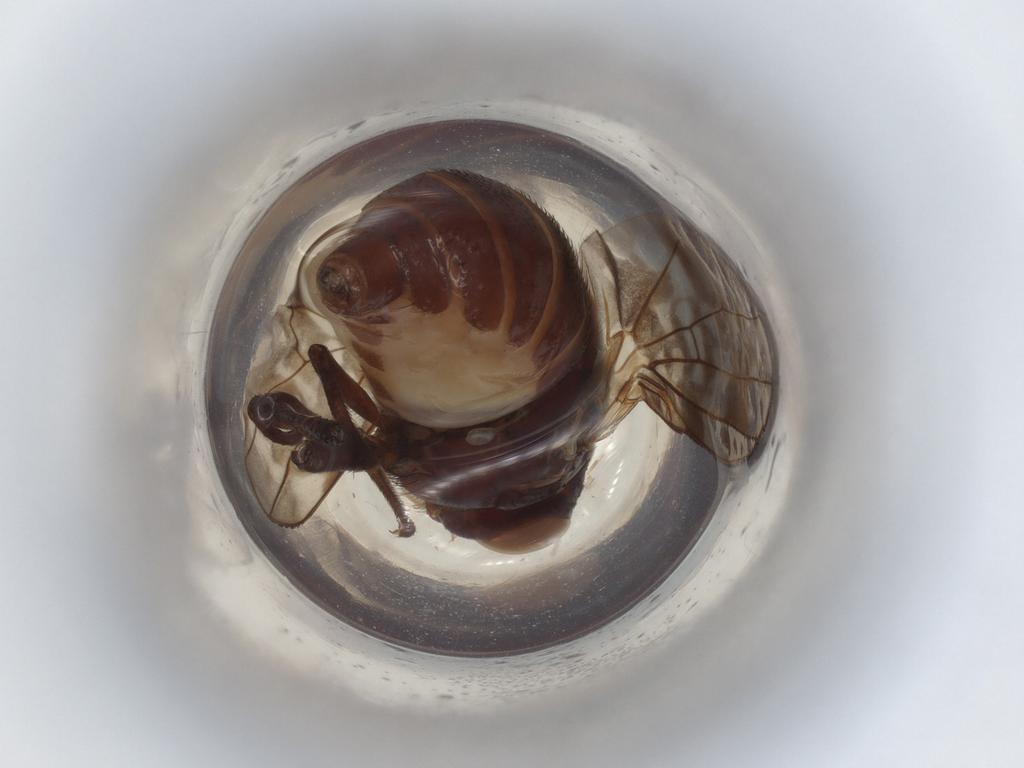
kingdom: Animalia
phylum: Arthropoda
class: Insecta
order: Diptera
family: Lauxaniidae
